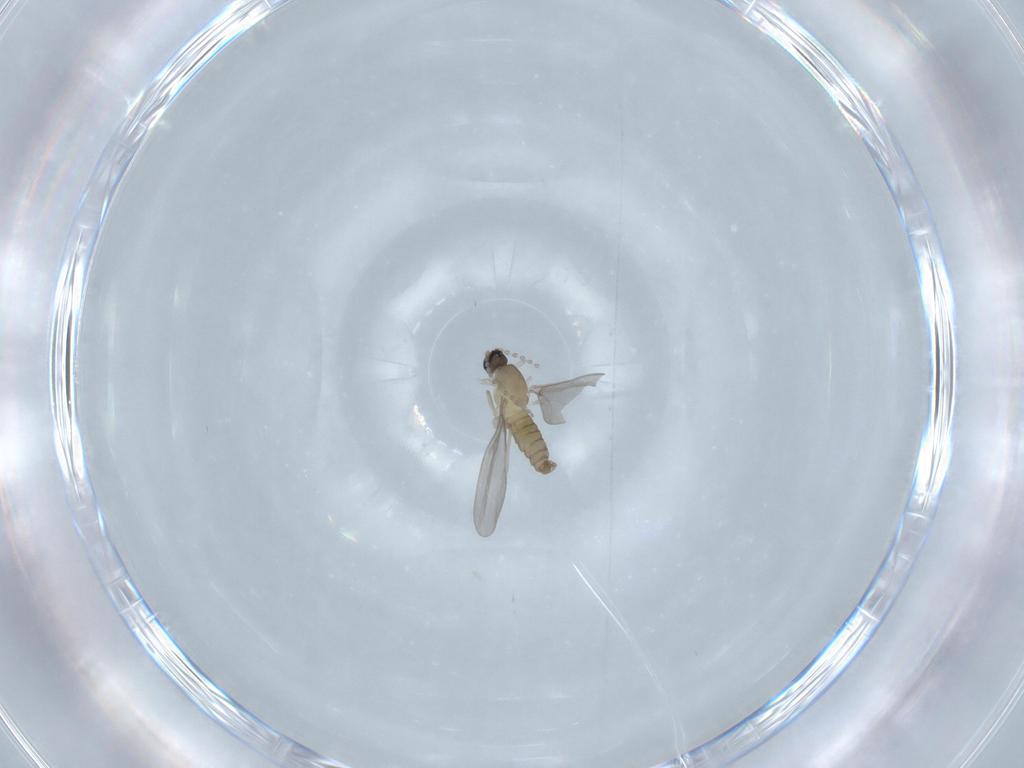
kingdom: Animalia
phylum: Arthropoda
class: Insecta
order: Diptera
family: Cecidomyiidae
